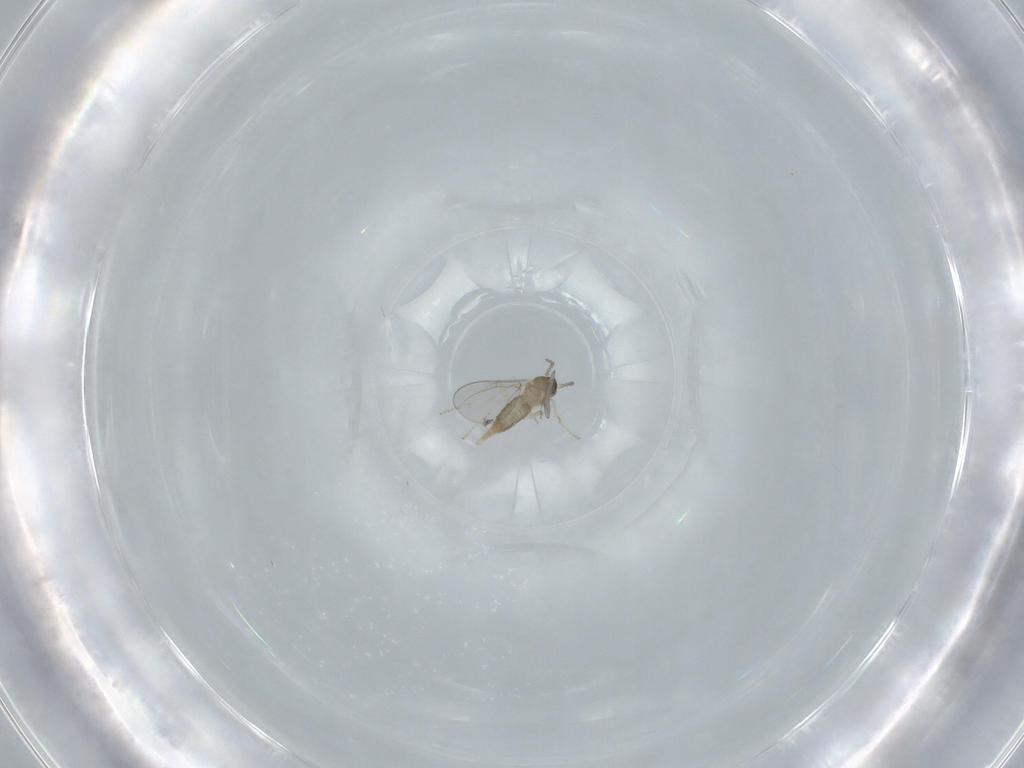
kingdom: Animalia
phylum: Arthropoda
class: Insecta
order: Diptera
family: Cecidomyiidae
